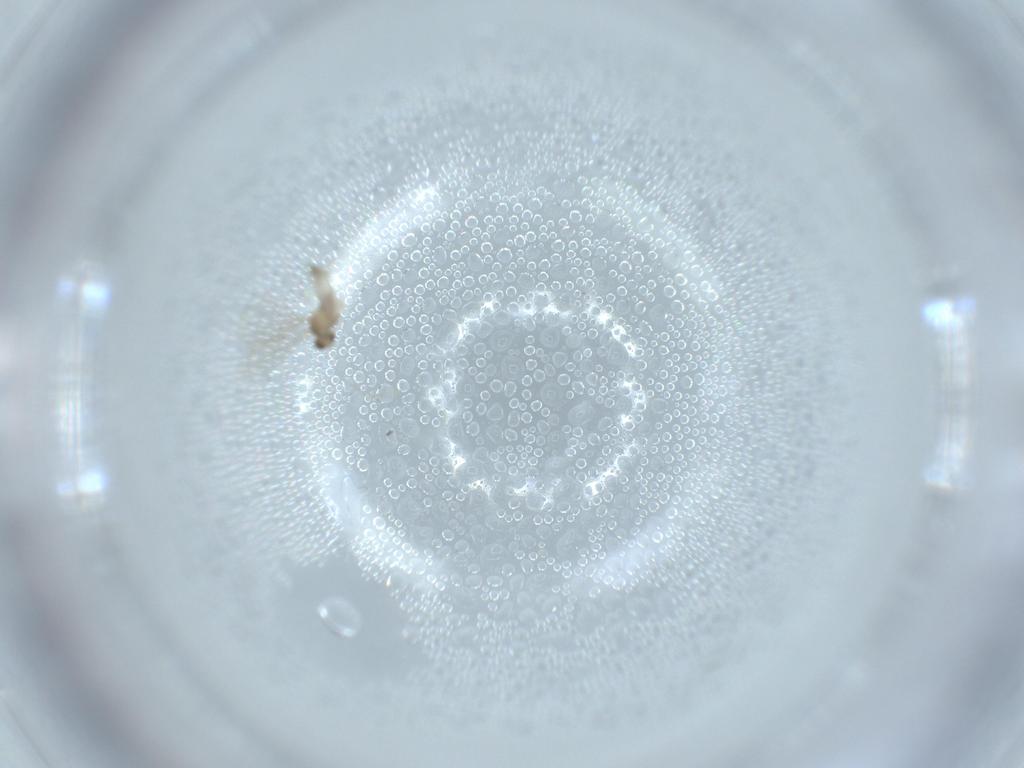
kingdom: Animalia
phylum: Arthropoda
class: Insecta
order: Diptera
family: Cecidomyiidae
